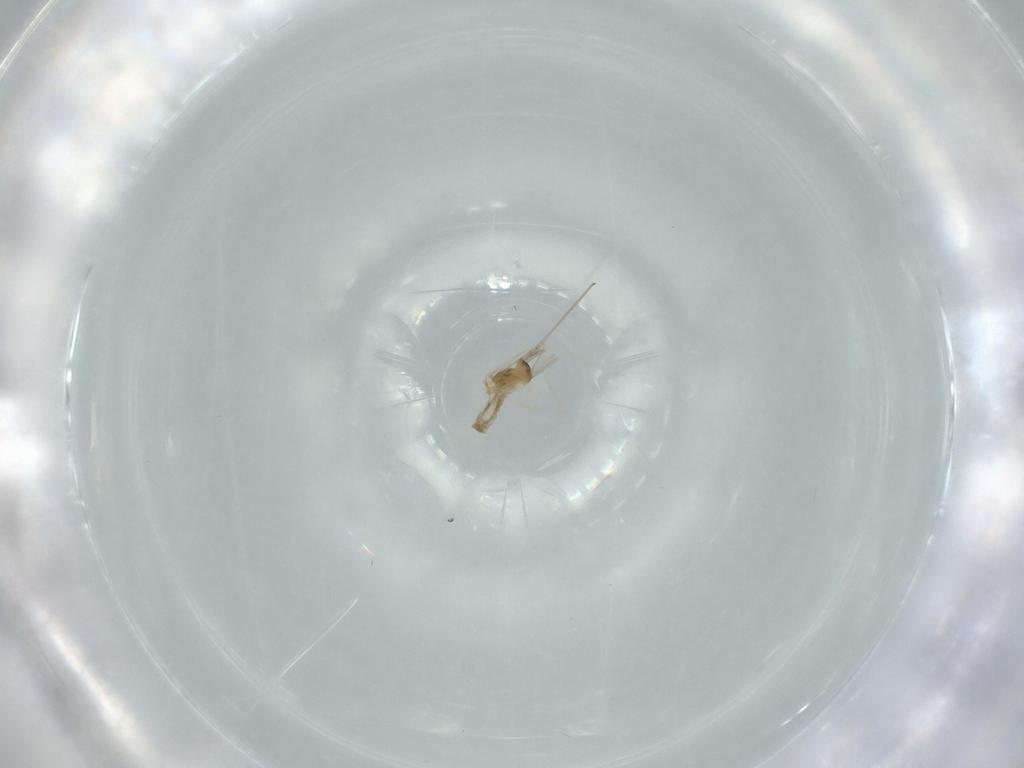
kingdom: Animalia
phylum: Arthropoda
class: Insecta
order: Diptera
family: Cecidomyiidae
